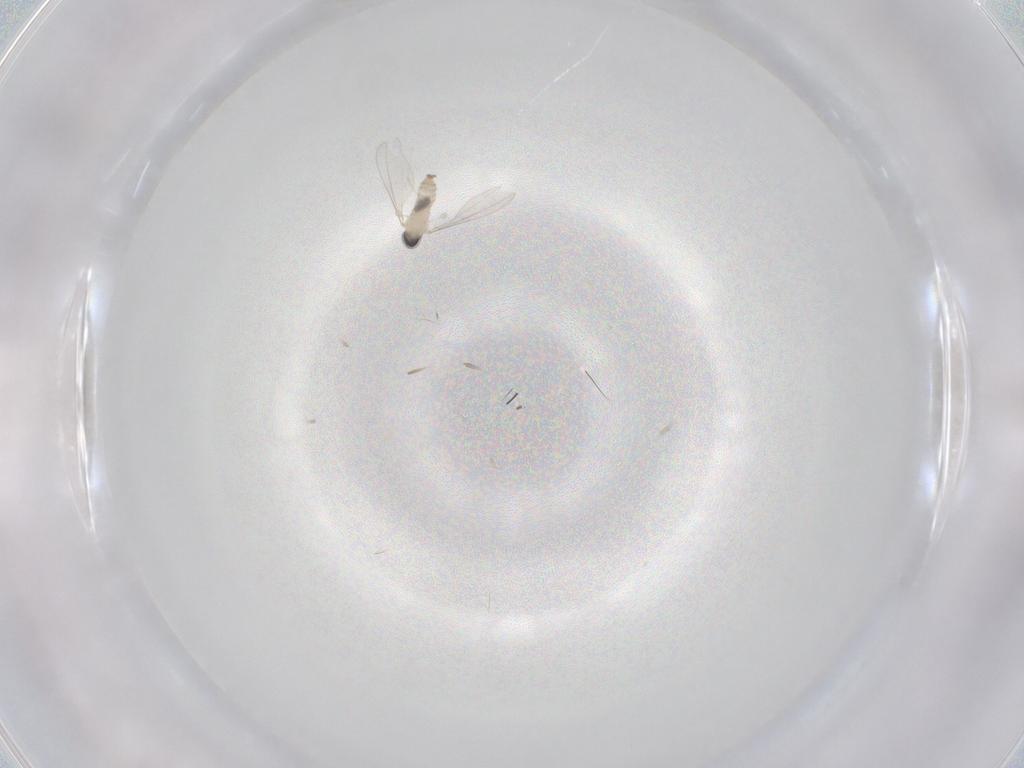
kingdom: Animalia
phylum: Arthropoda
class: Insecta
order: Diptera
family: Cecidomyiidae
